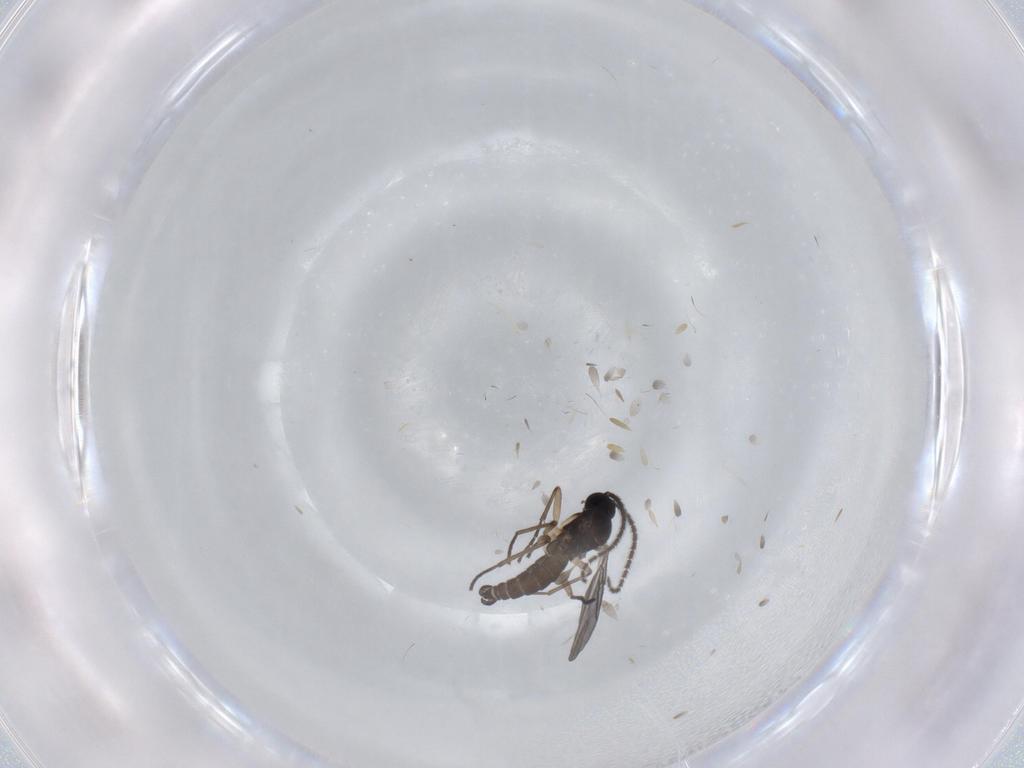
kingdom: Animalia
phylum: Arthropoda
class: Insecta
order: Diptera
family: Sciaridae
